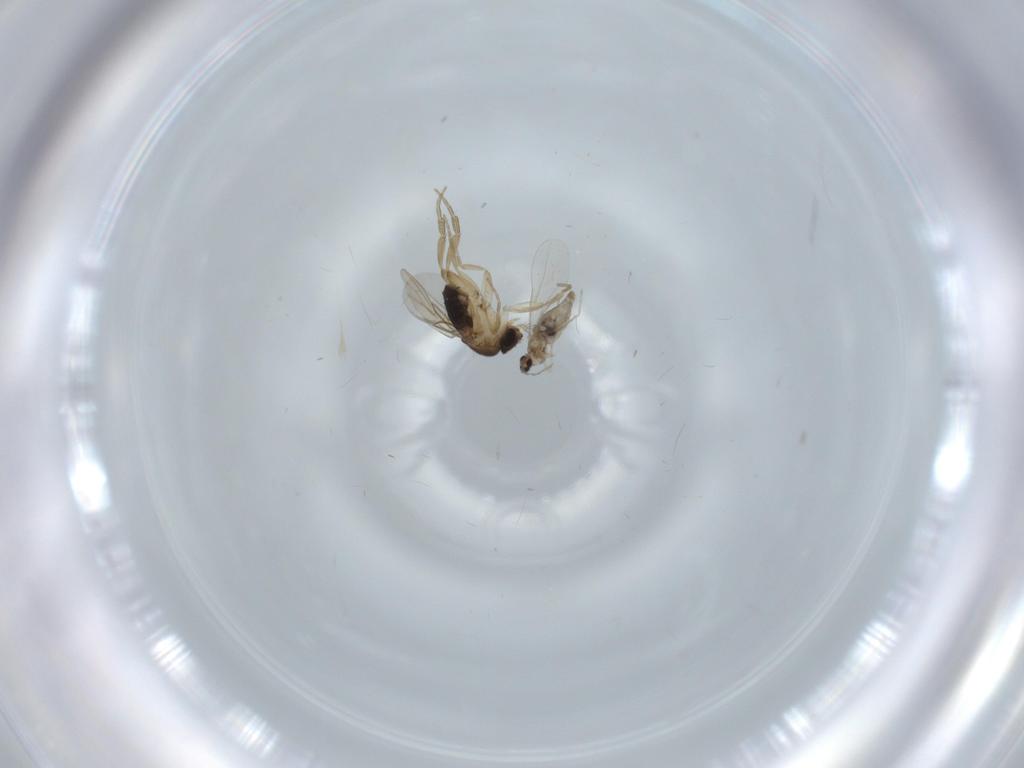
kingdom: Animalia
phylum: Arthropoda
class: Insecta
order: Diptera
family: Cecidomyiidae
